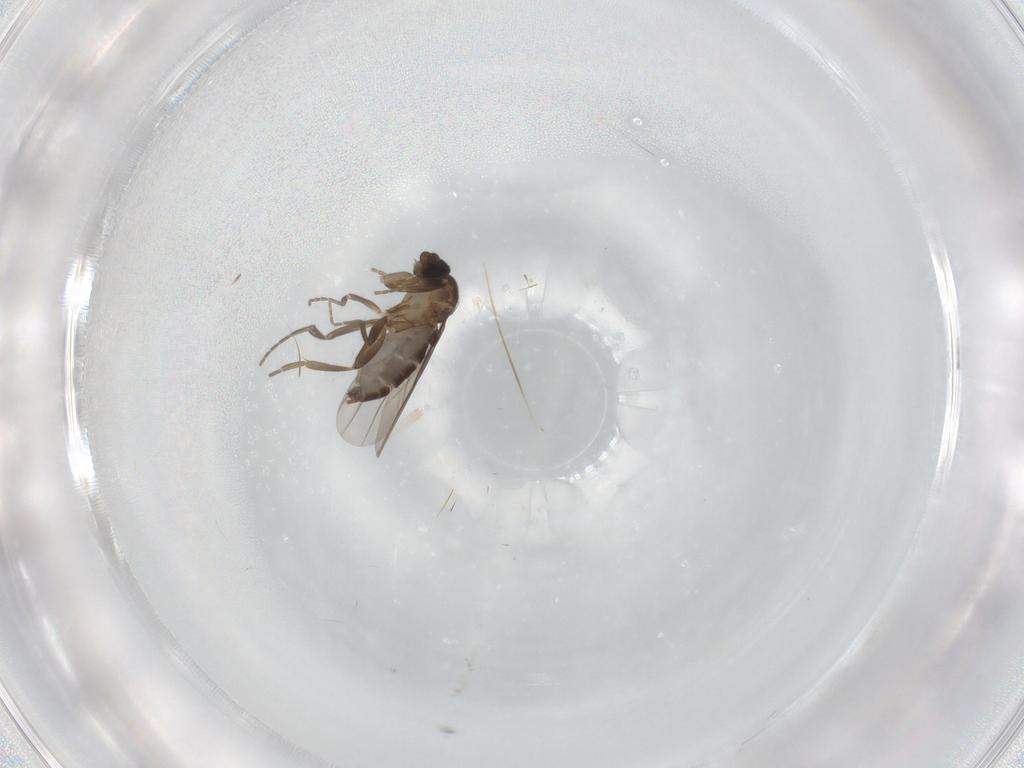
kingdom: Animalia
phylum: Arthropoda
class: Insecta
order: Diptera
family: Phoridae
